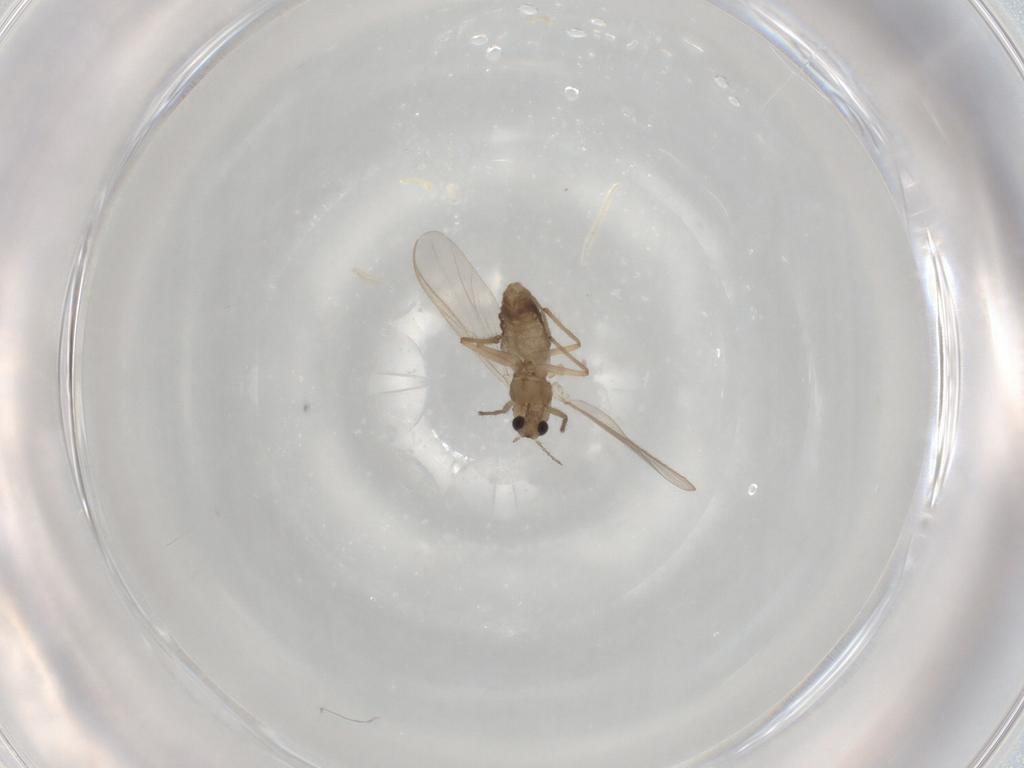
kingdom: Animalia
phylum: Arthropoda
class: Insecta
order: Diptera
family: Chironomidae
